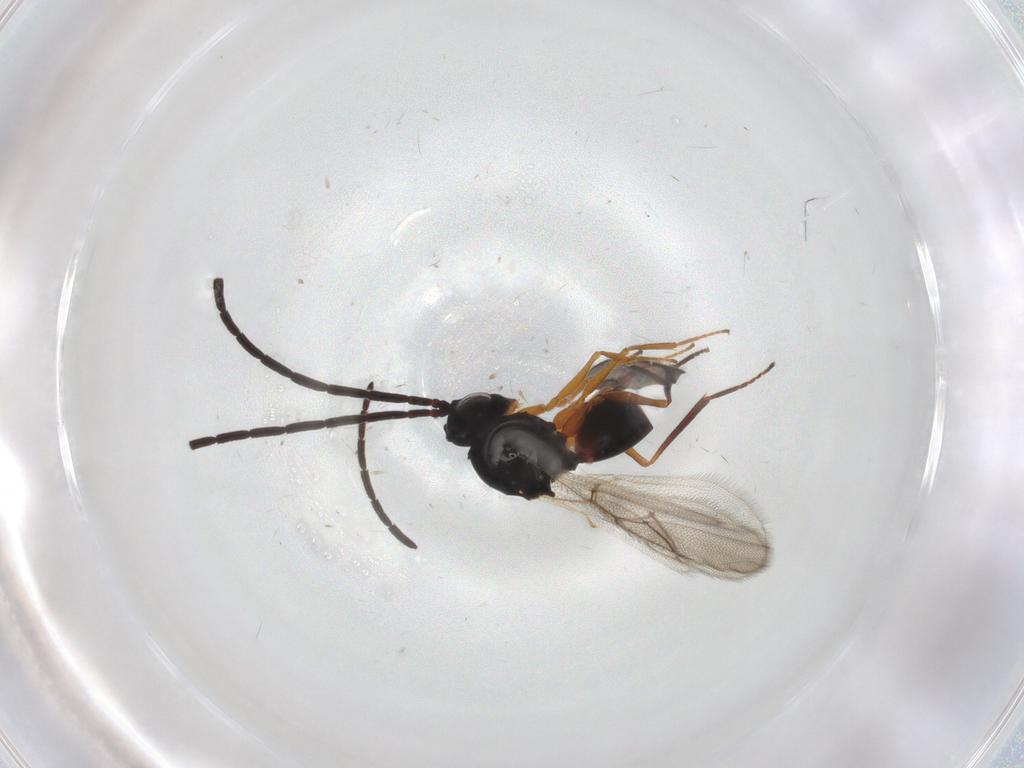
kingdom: Animalia
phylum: Arthropoda
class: Insecta
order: Hymenoptera
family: Figitidae
